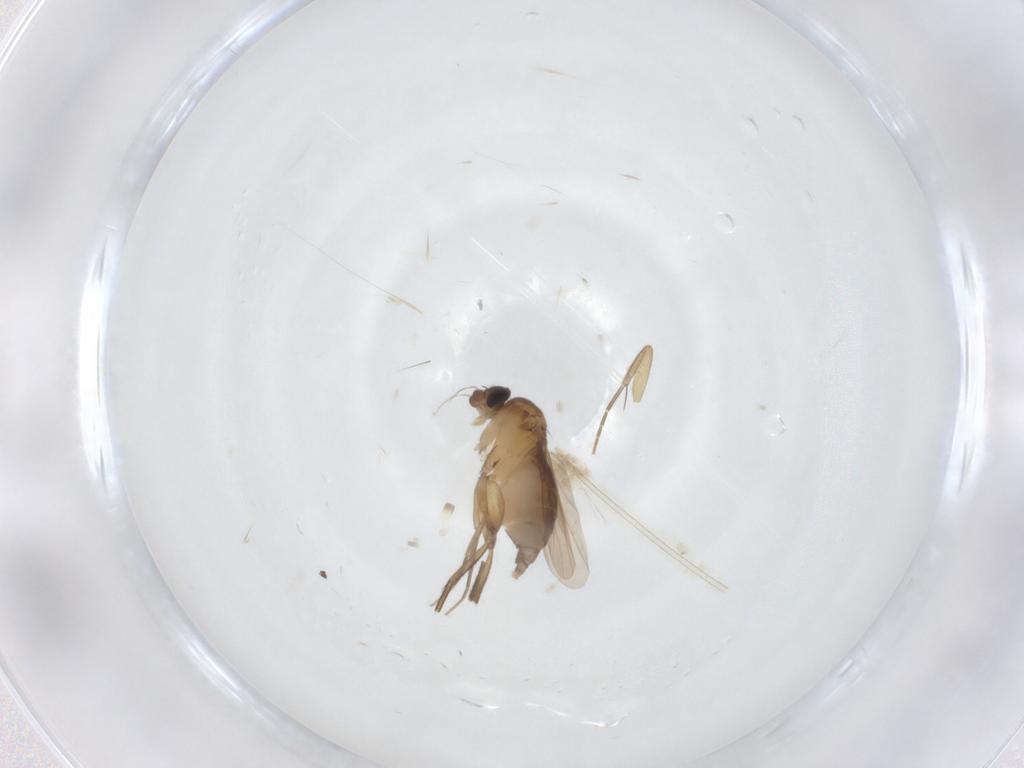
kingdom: Animalia
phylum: Arthropoda
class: Insecta
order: Diptera
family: Phoridae
